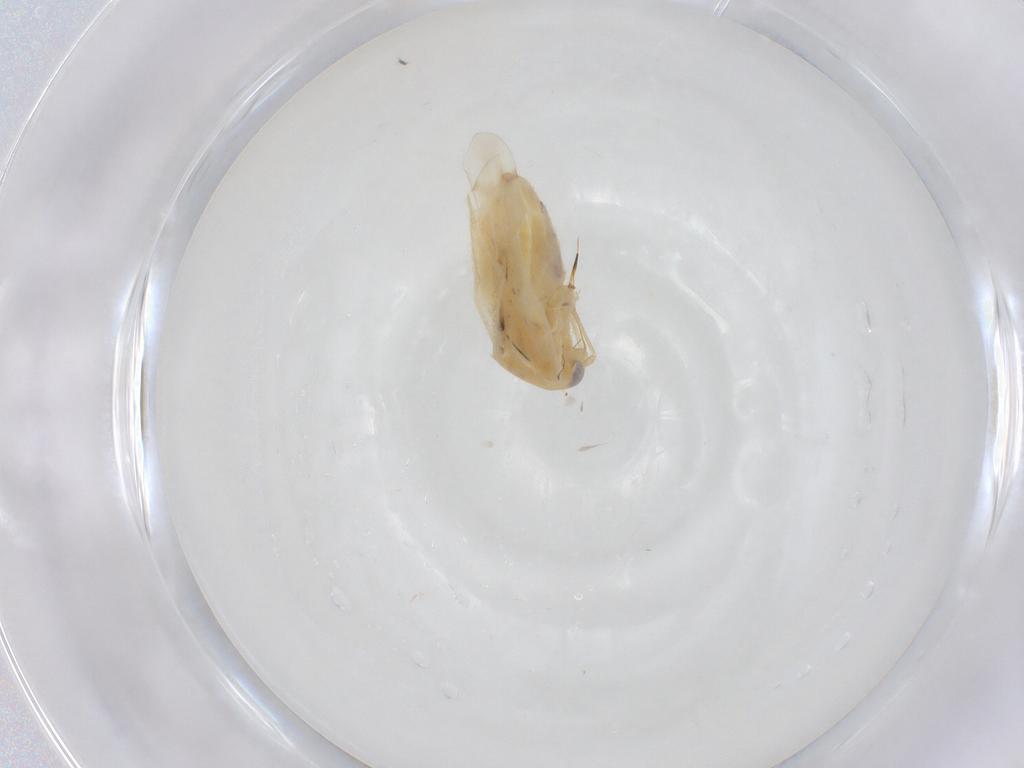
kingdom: Animalia
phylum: Arthropoda
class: Insecta
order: Hemiptera
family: Miridae
